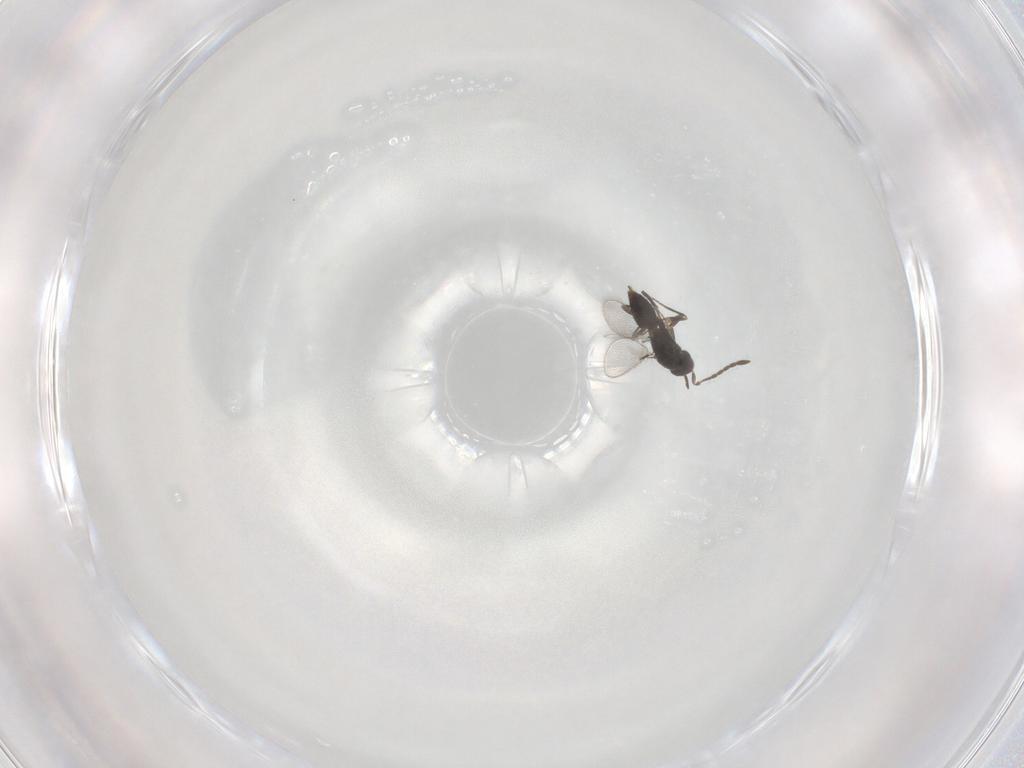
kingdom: Animalia
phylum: Arthropoda
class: Insecta
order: Hymenoptera
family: Mymaridae
